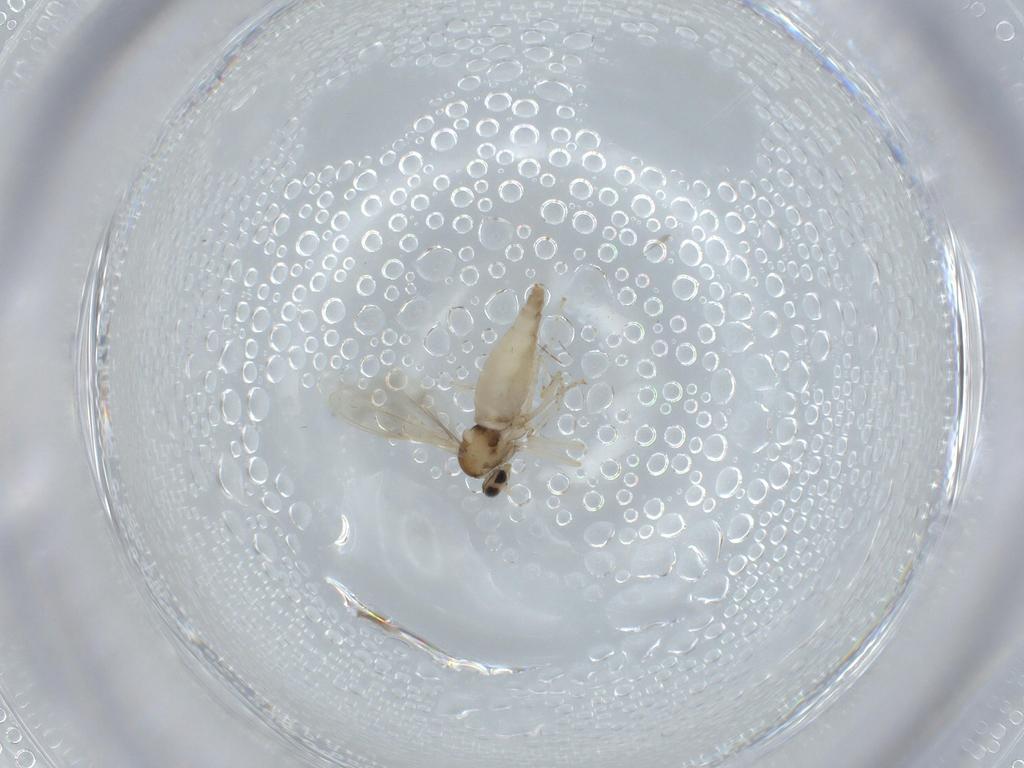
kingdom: Animalia
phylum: Arthropoda
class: Insecta
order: Diptera
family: Cecidomyiidae
